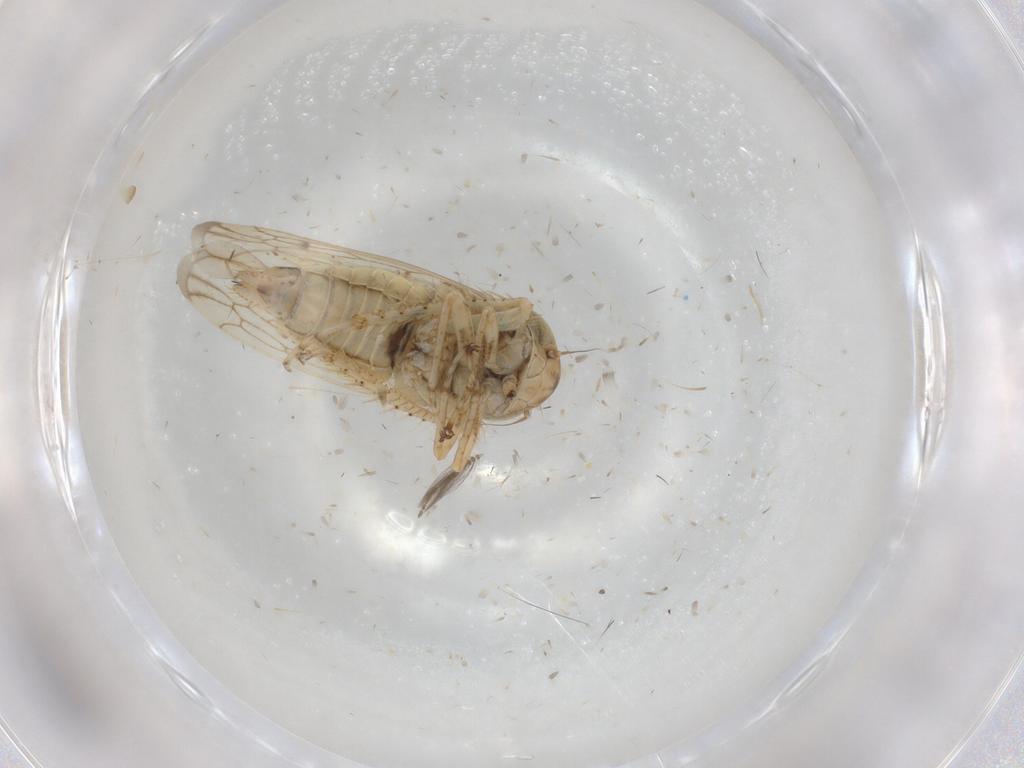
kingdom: Animalia
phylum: Arthropoda
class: Insecta
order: Hemiptera
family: Cicadellidae
